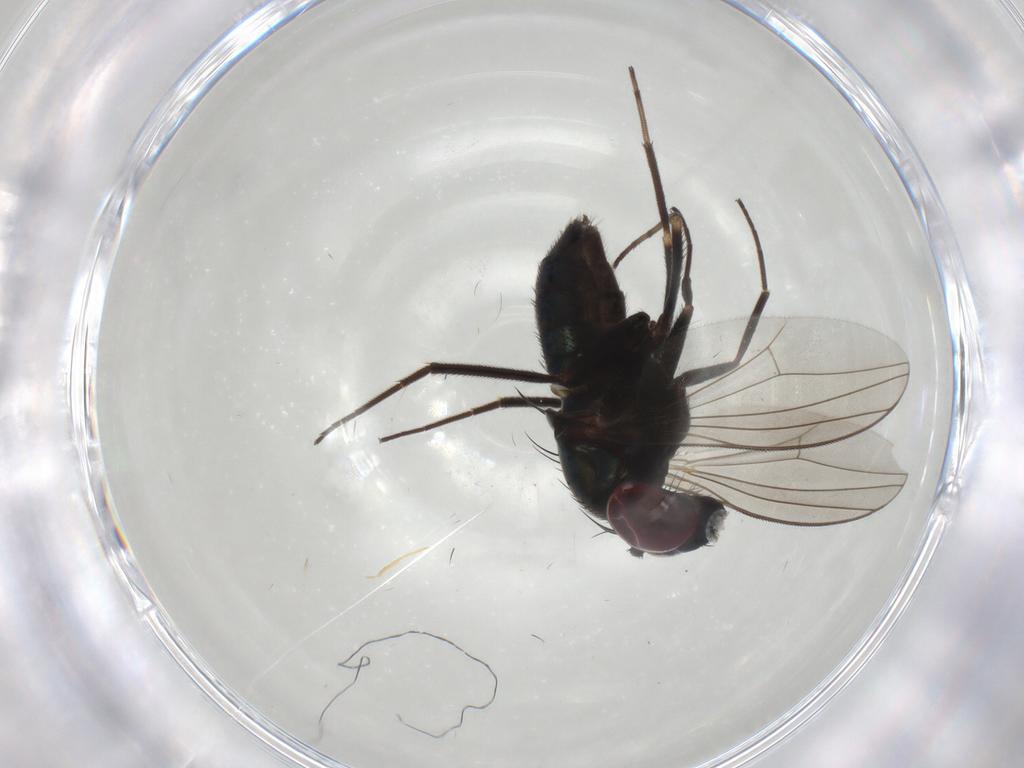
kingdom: Animalia
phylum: Arthropoda
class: Insecta
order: Diptera
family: Dolichopodidae
